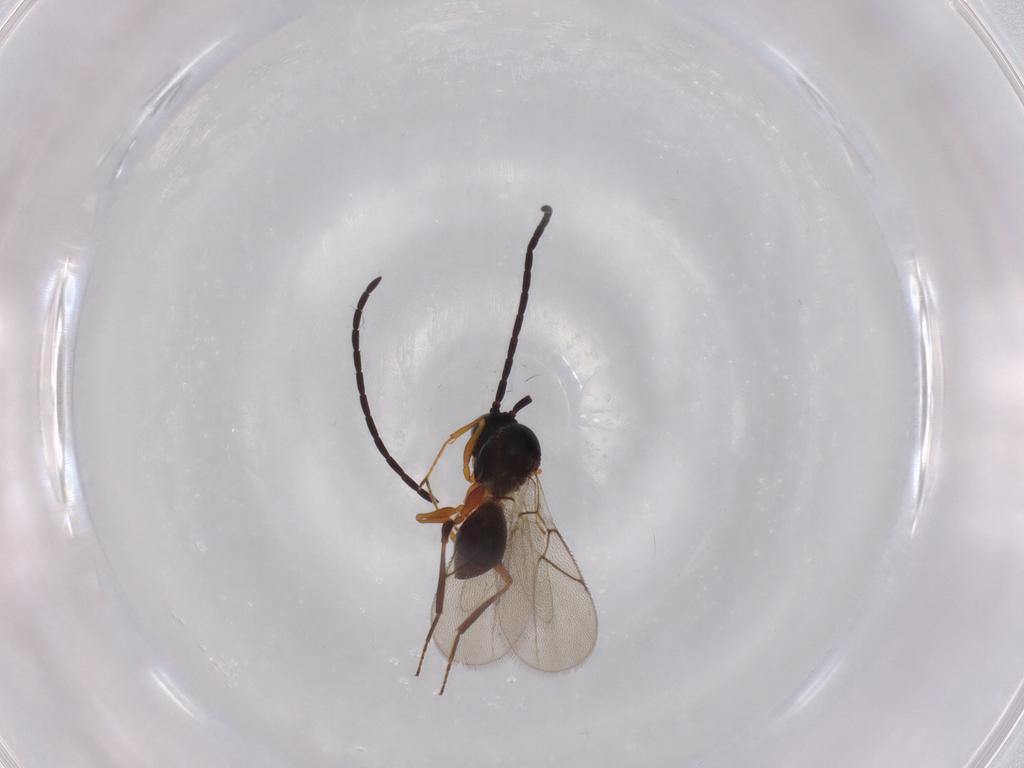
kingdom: Animalia
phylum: Arthropoda
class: Insecta
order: Hymenoptera
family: Figitidae
